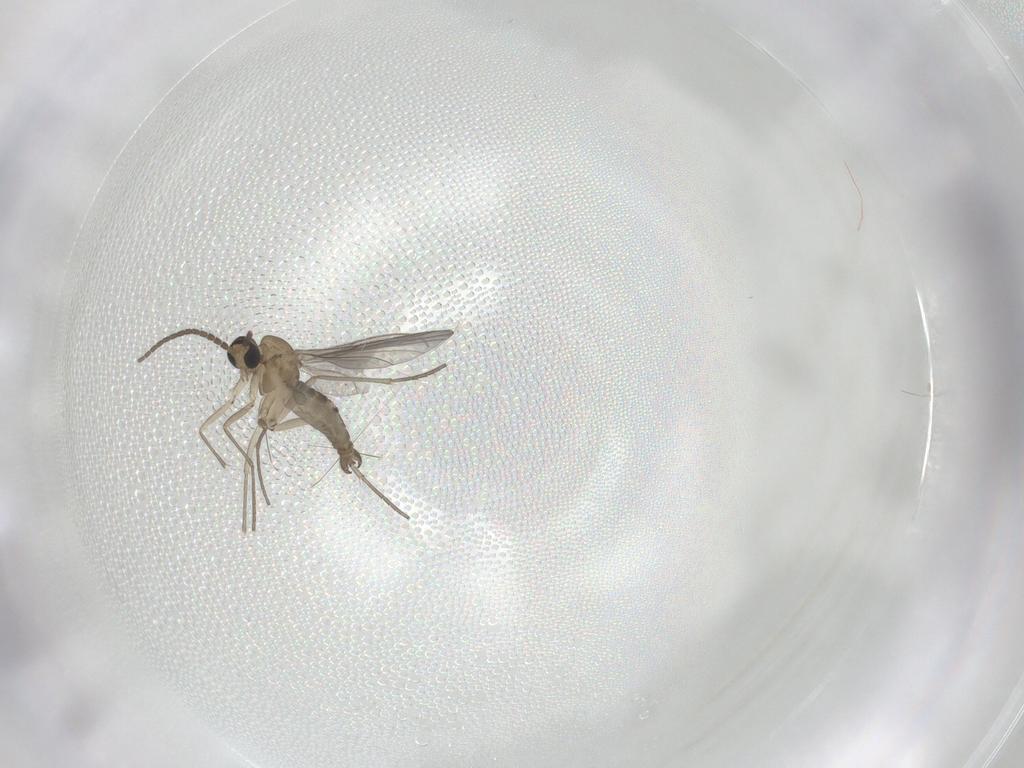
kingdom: Animalia
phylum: Arthropoda
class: Insecta
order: Diptera
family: Sciaridae
